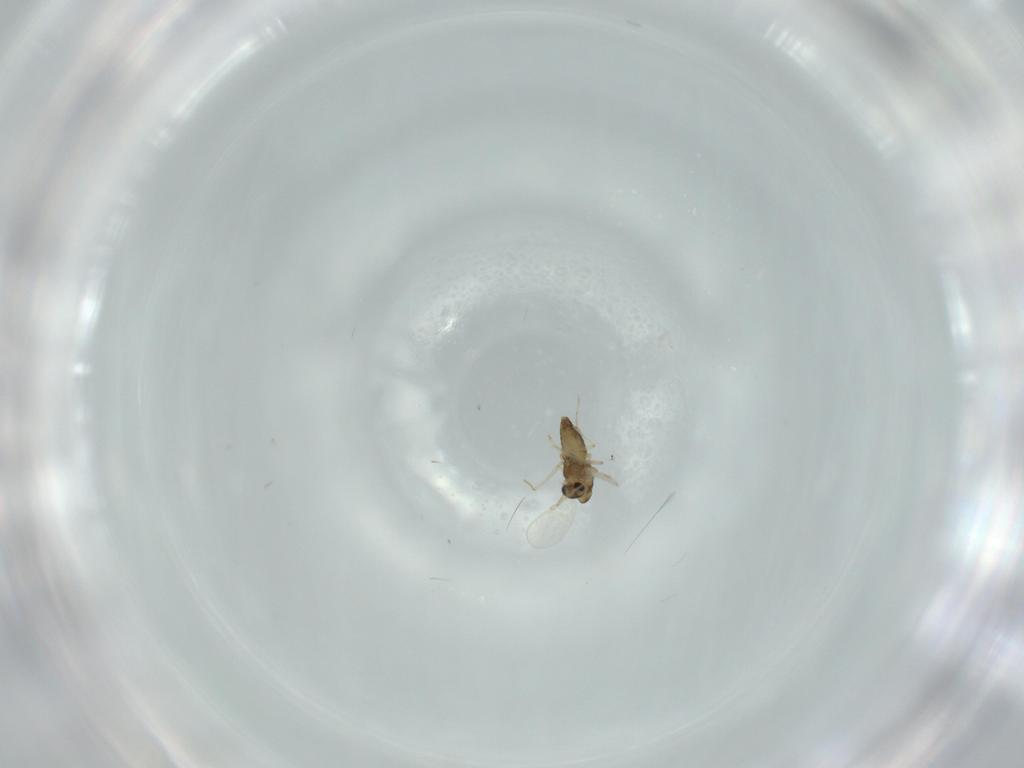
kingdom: Animalia
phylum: Arthropoda
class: Insecta
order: Diptera
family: Chironomidae
